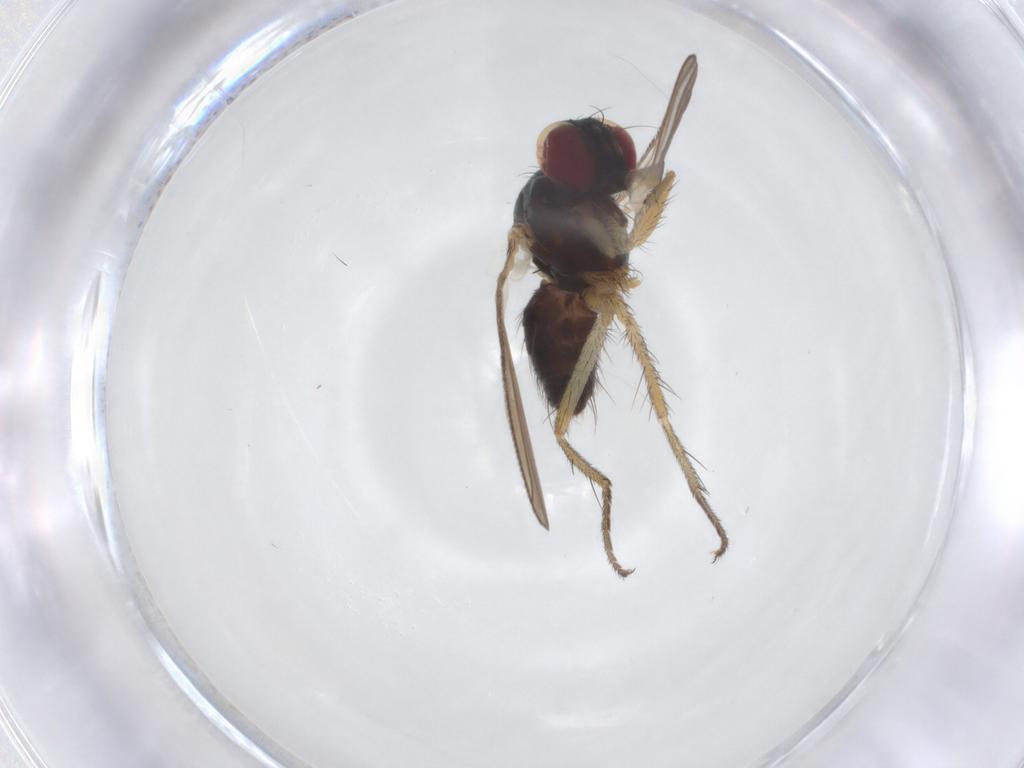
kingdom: Animalia
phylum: Arthropoda
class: Insecta
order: Diptera
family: Muscidae
